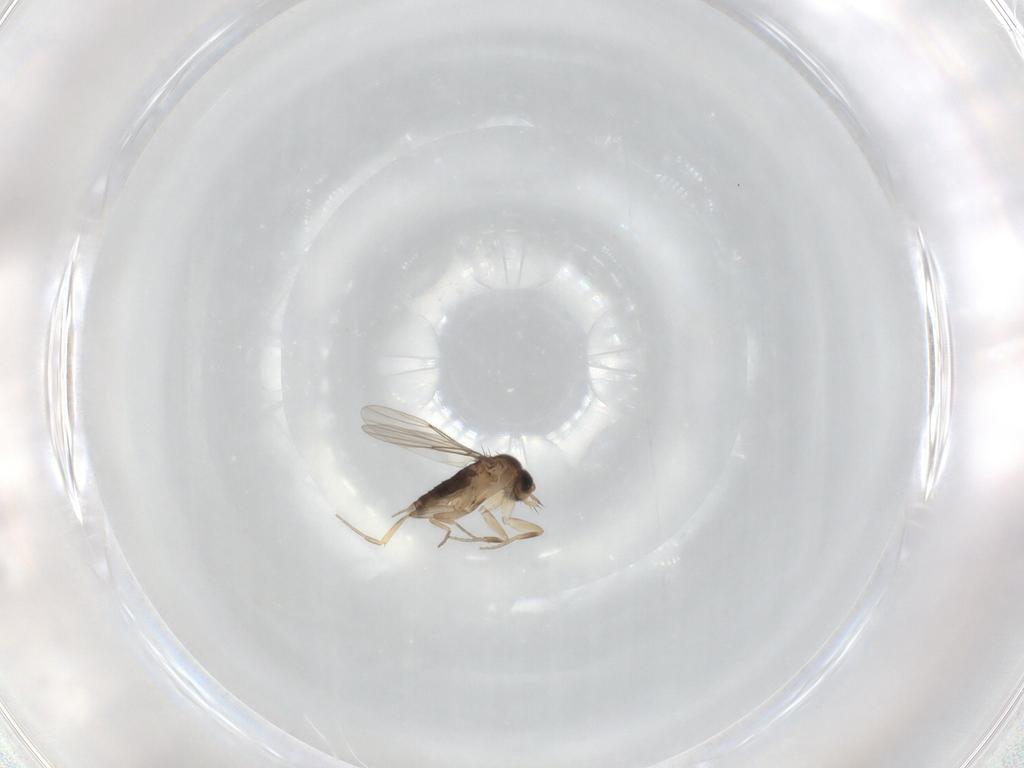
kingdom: Animalia
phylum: Arthropoda
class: Insecta
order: Diptera
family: Phoridae
